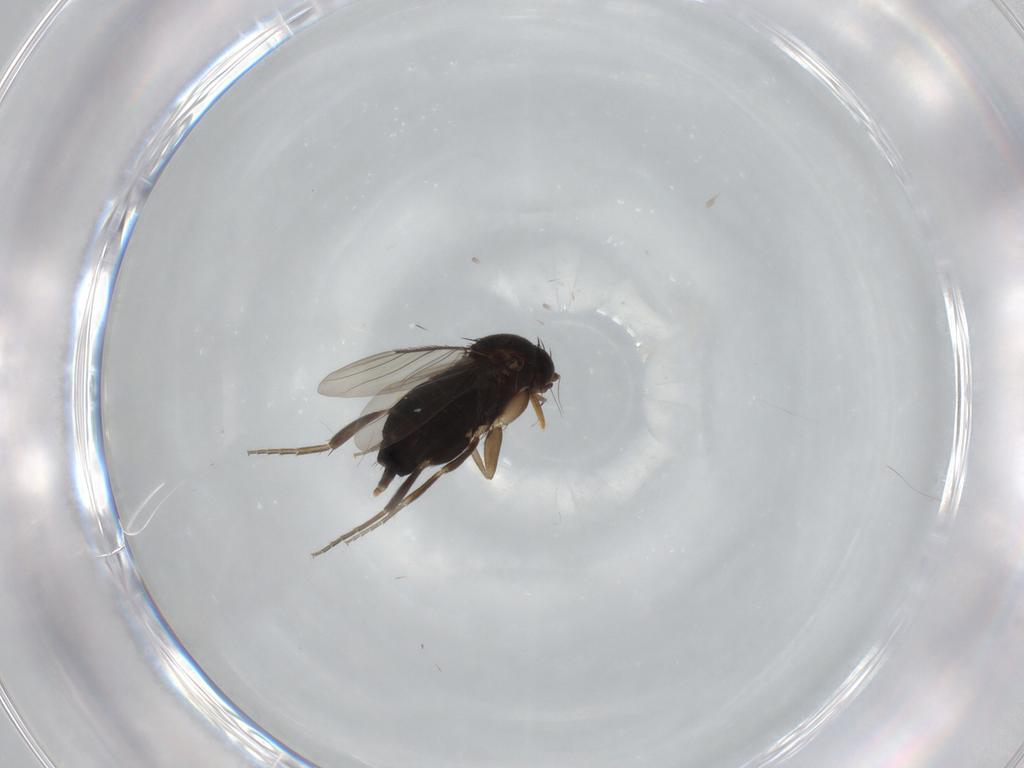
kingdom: Animalia
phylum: Arthropoda
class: Insecta
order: Diptera
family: Phoridae
